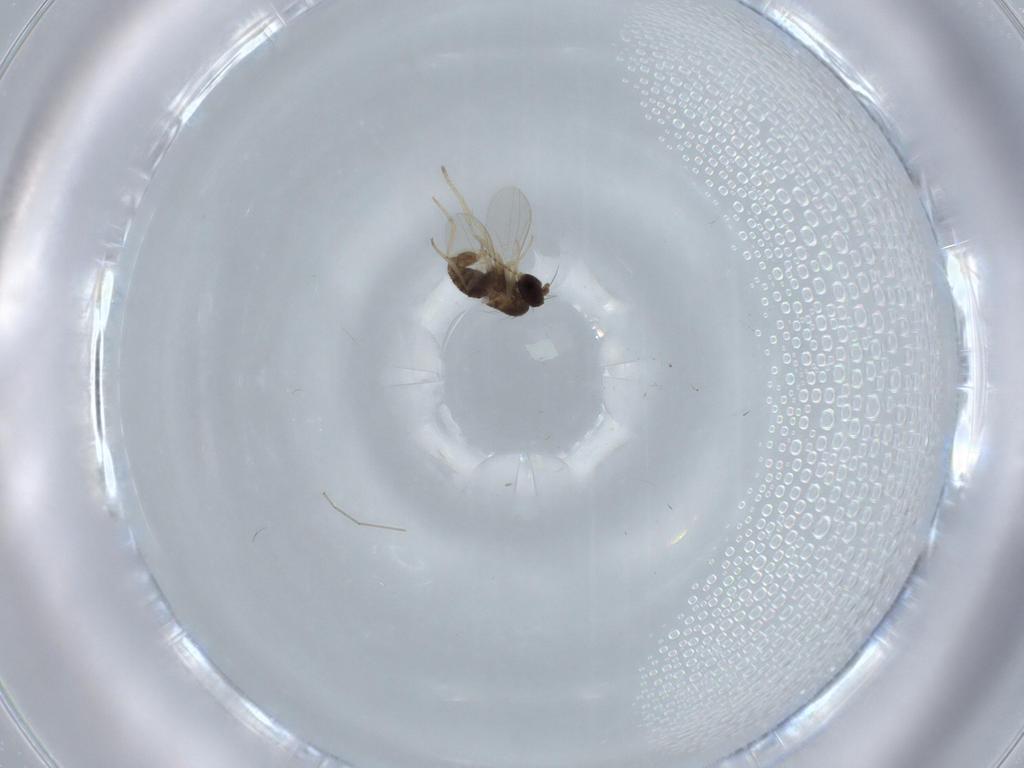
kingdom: Animalia
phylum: Arthropoda
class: Insecta
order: Diptera
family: Dolichopodidae
